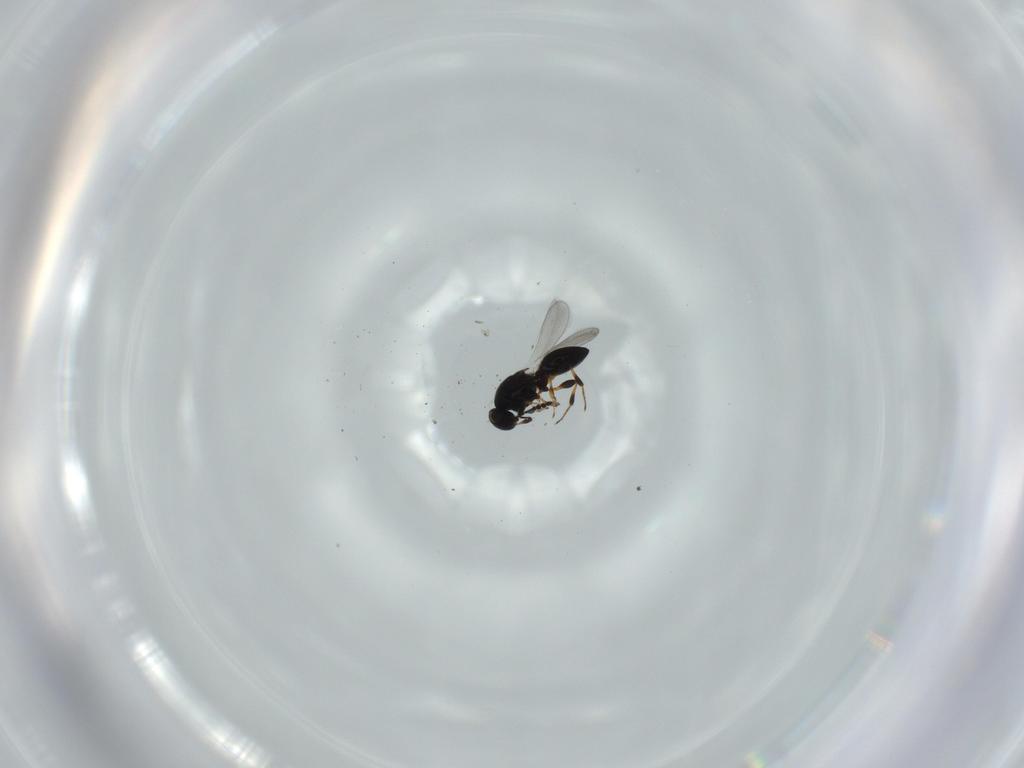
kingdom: Animalia
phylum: Arthropoda
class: Insecta
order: Hymenoptera
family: Platygastridae
